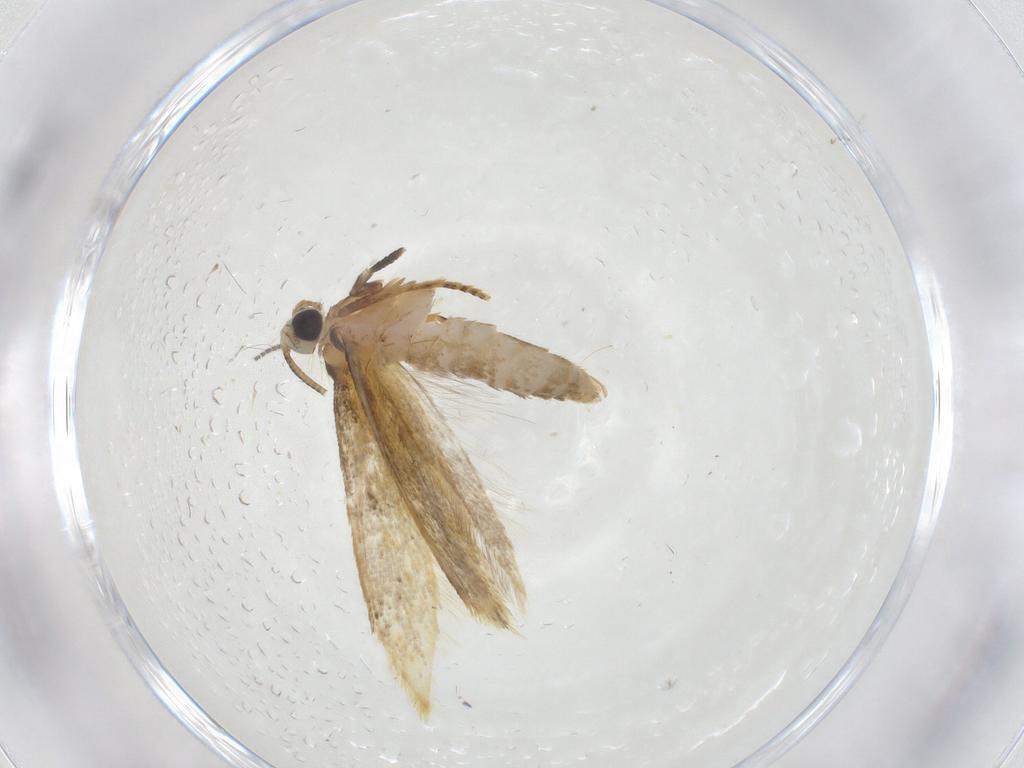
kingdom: Animalia
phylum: Arthropoda
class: Insecta
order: Lepidoptera
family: Tineidae
